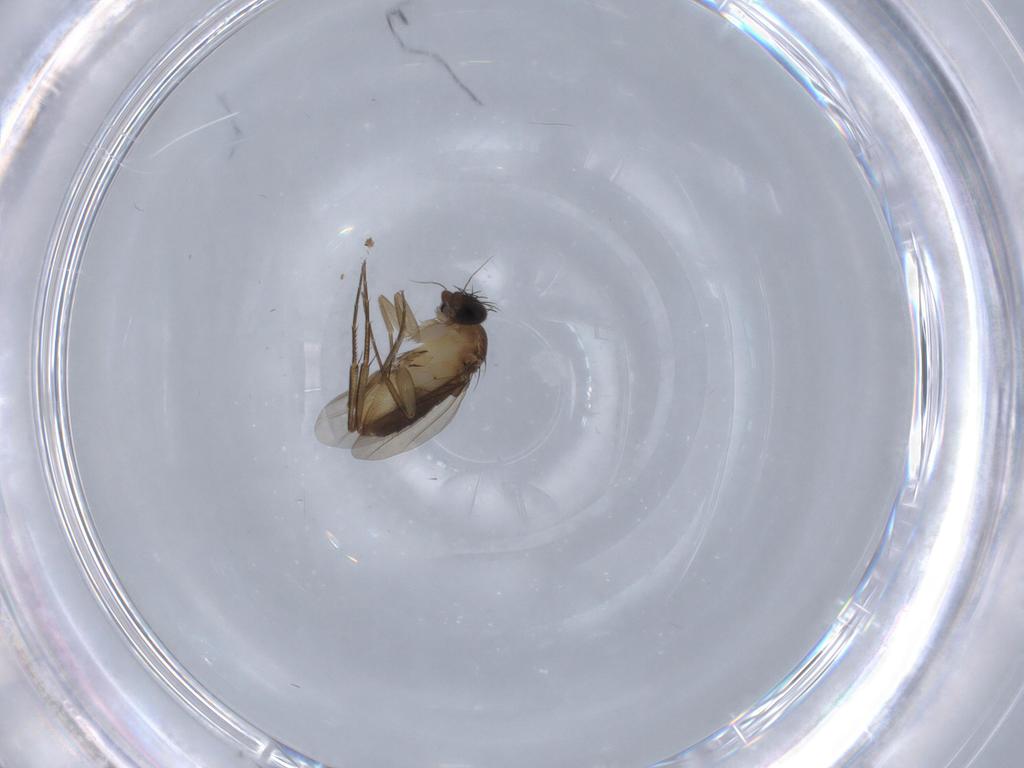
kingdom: Animalia
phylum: Arthropoda
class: Insecta
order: Diptera
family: Phoridae
